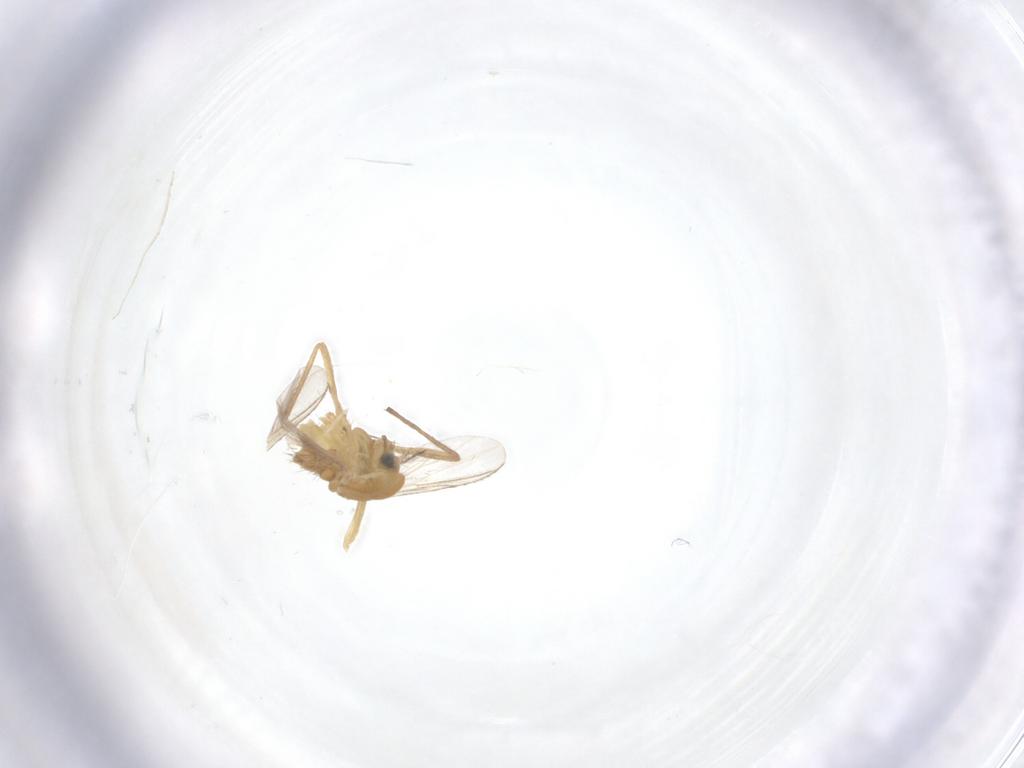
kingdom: Animalia
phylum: Arthropoda
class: Insecta
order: Diptera
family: Chironomidae
